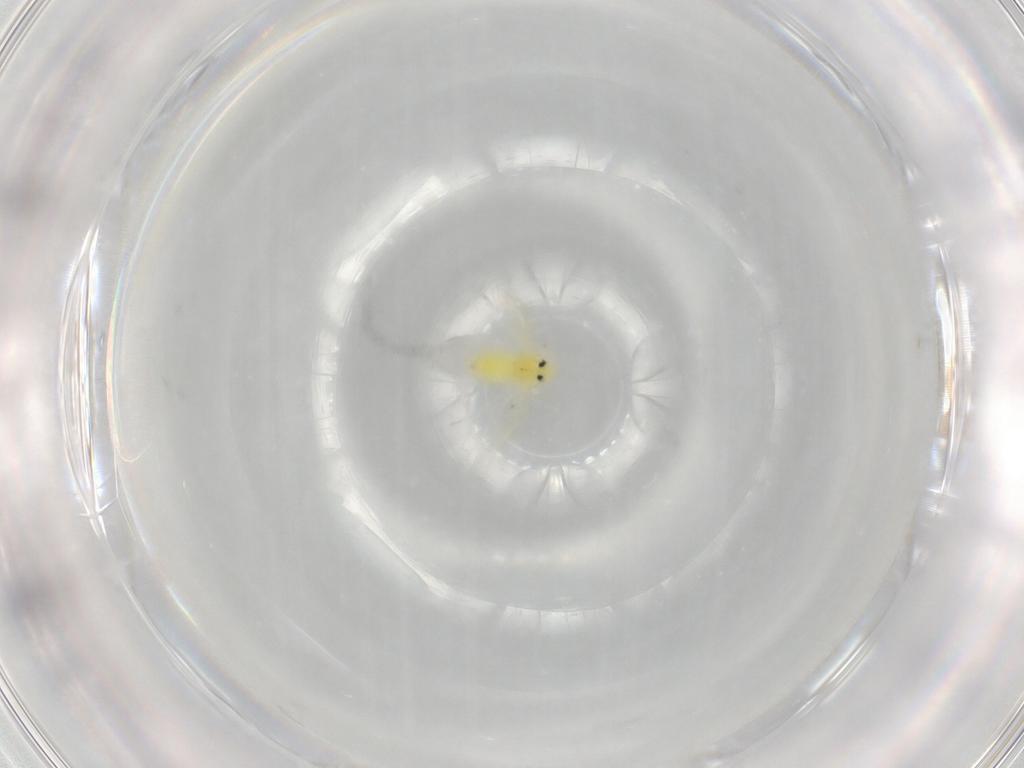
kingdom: Animalia
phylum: Arthropoda
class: Insecta
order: Hemiptera
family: Aleyrodidae
